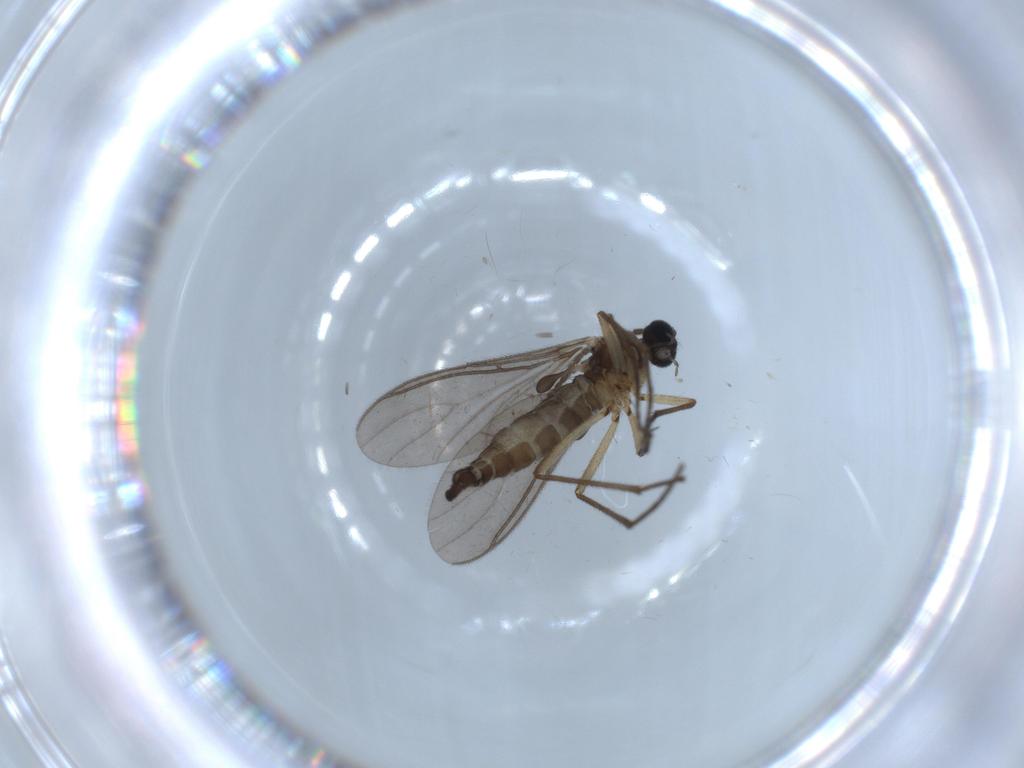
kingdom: Animalia
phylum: Arthropoda
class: Insecta
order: Diptera
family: Sciaridae
